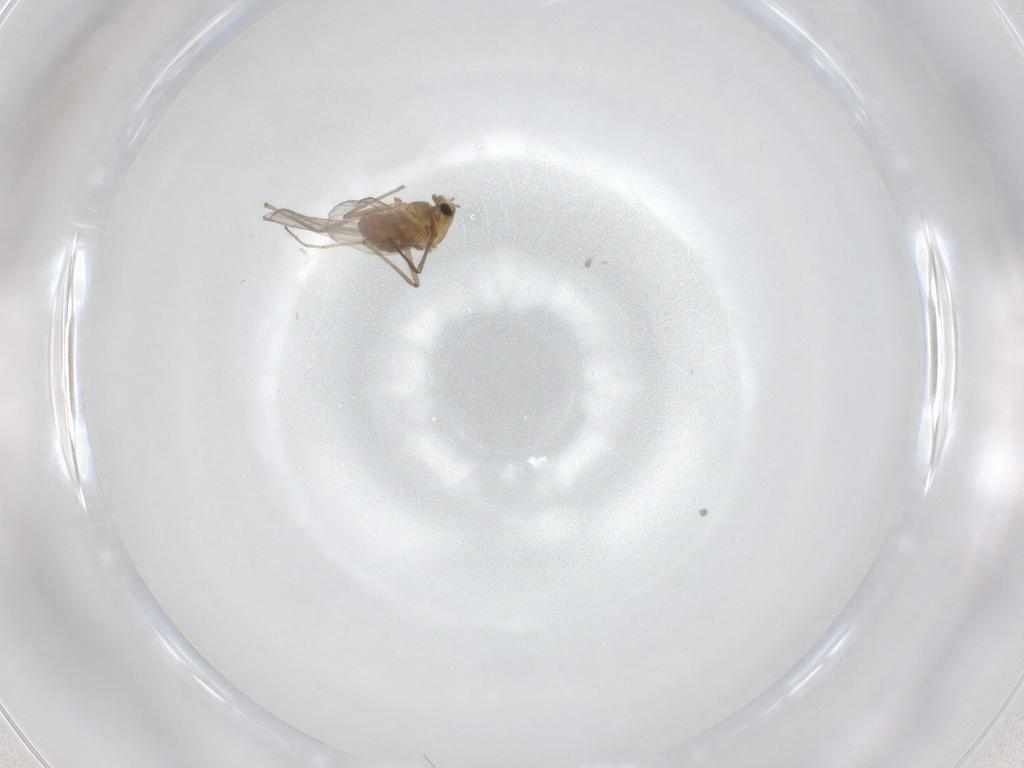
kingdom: Animalia
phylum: Arthropoda
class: Insecta
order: Diptera
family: Chironomidae
